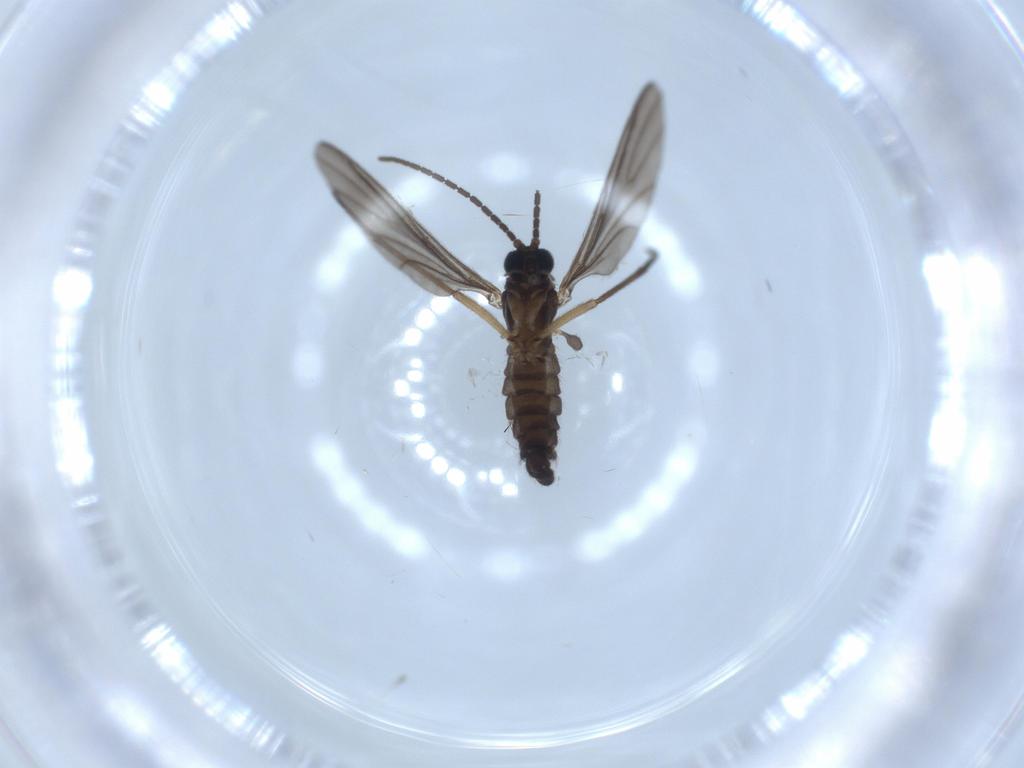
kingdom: Animalia
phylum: Arthropoda
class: Insecta
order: Diptera
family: Sciaridae
